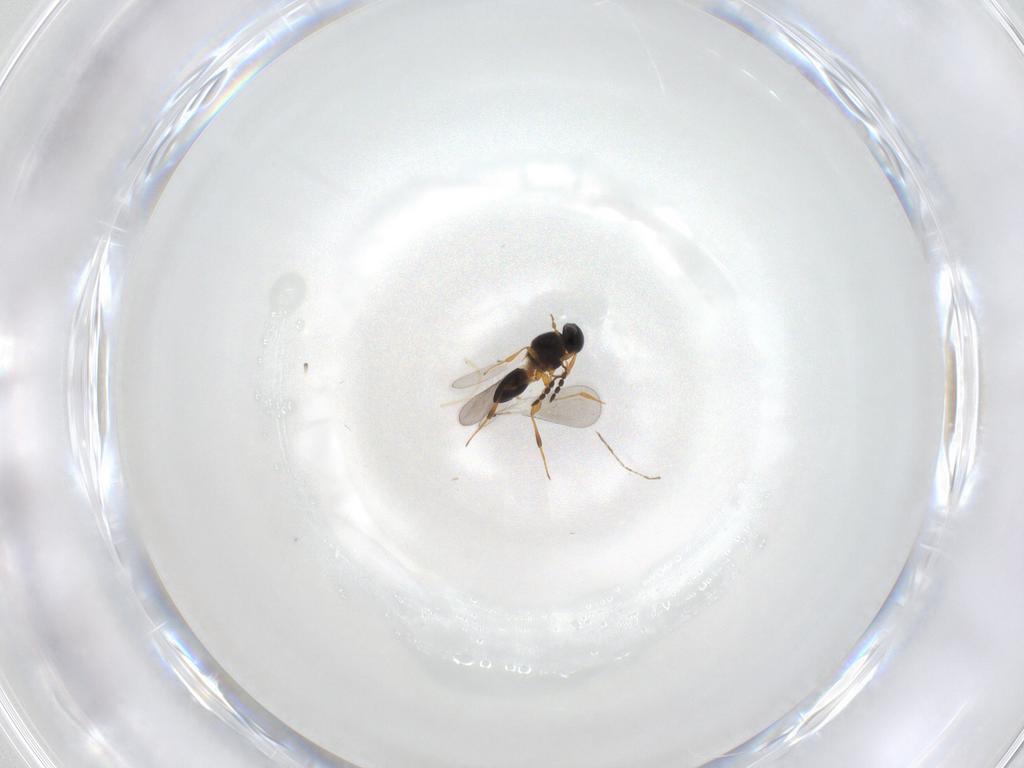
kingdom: Animalia
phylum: Arthropoda
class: Insecta
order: Hymenoptera
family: Platygastridae
